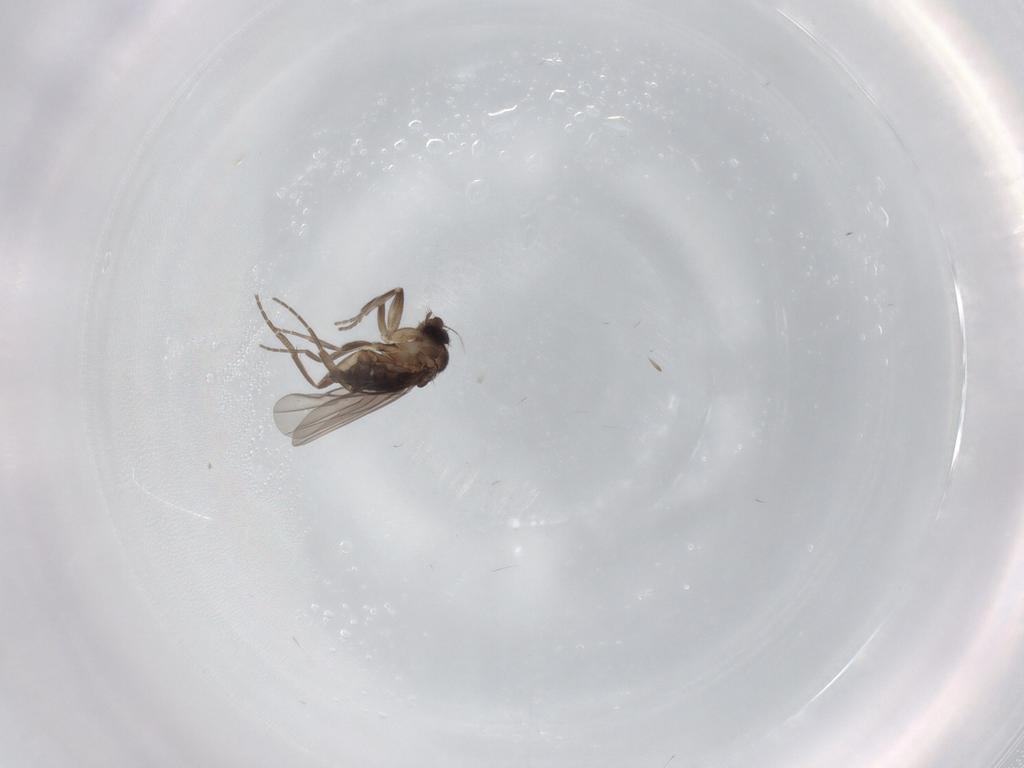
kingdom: Animalia
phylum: Arthropoda
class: Insecta
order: Diptera
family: Phoridae
